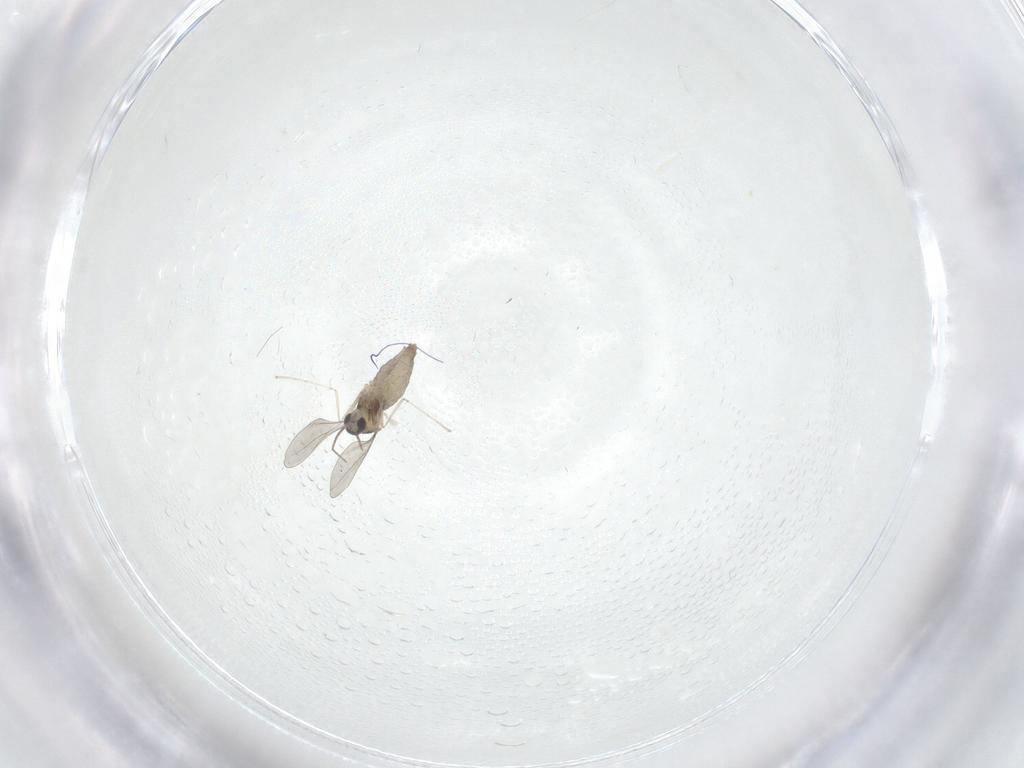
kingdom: Animalia
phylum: Arthropoda
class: Insecta
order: Diptera
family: Cecidomyiidae
